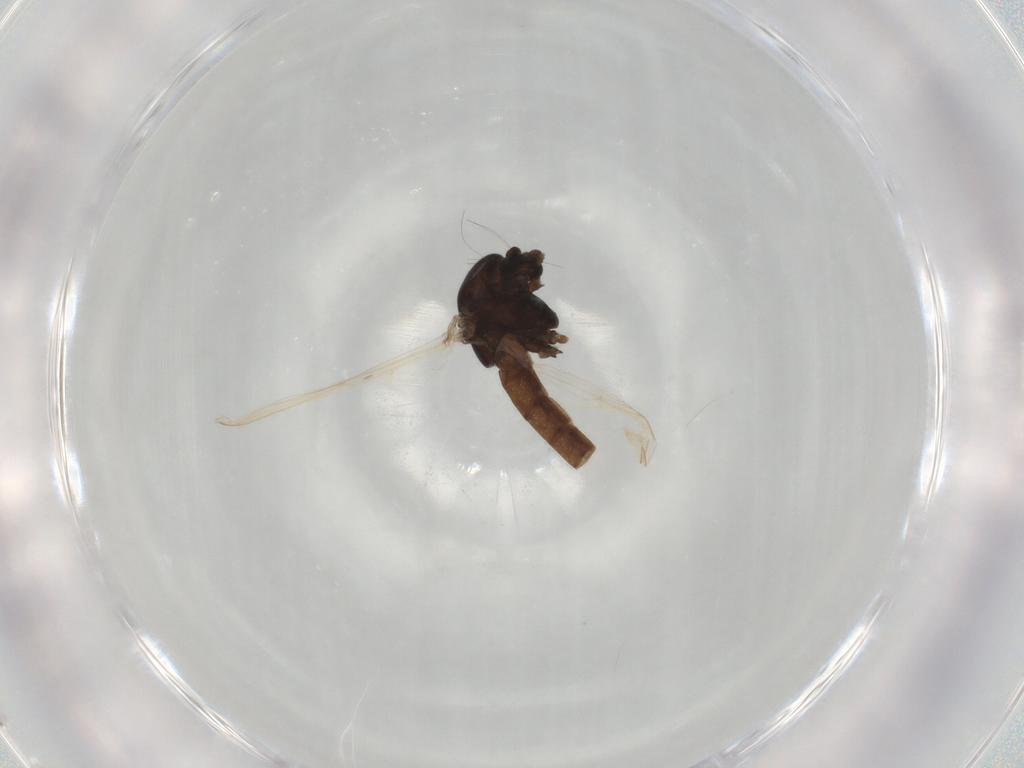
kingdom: Animalia
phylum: Arthropoda
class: Insecta
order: Diptera
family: Chironomidae
